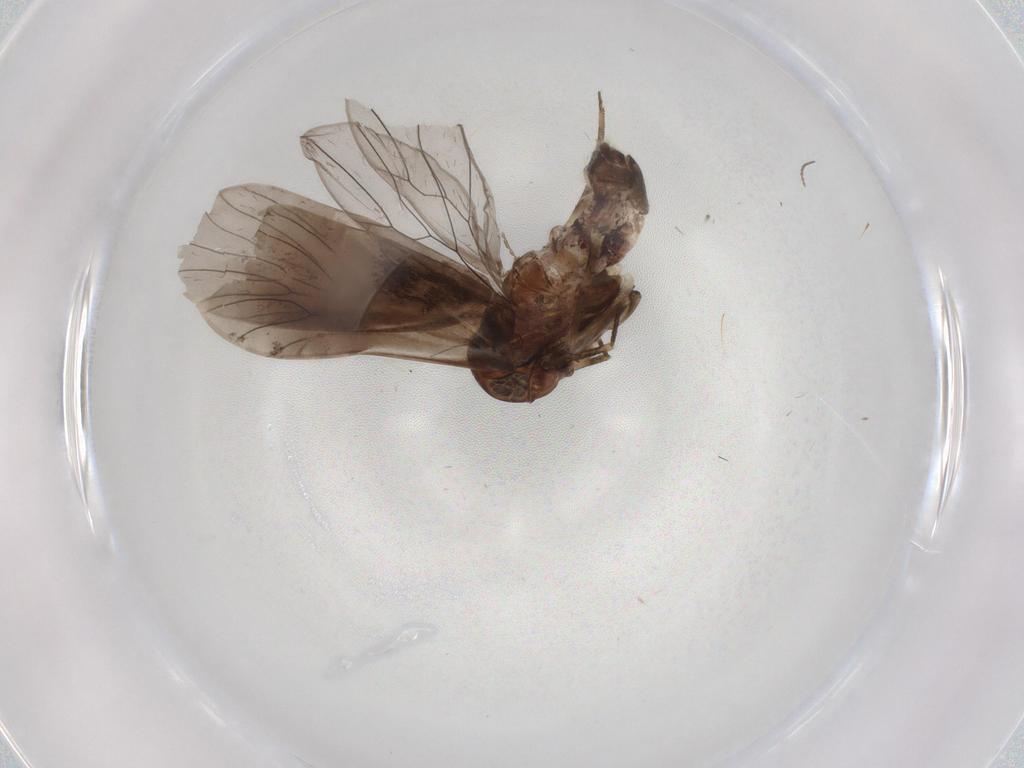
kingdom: Animalia
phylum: Arthropoda
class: Insecta
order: Psocodea
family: Amphientomidae
